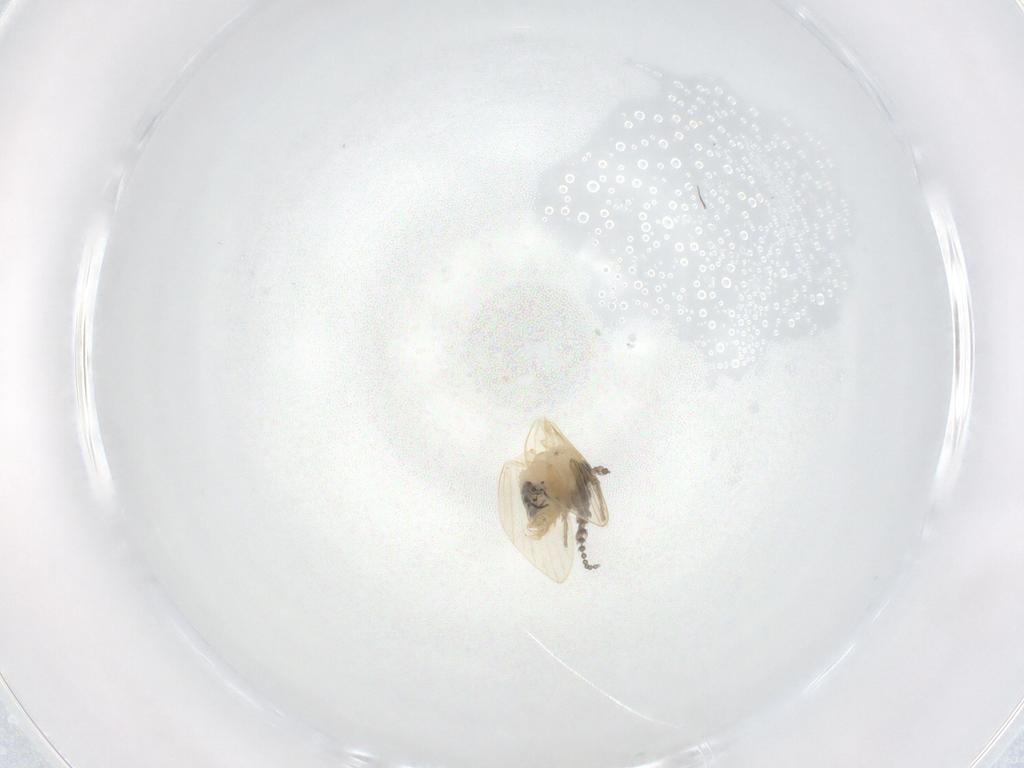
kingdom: Animalia
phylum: Arthropoda
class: Insecta
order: Diptera
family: Psychodidae
